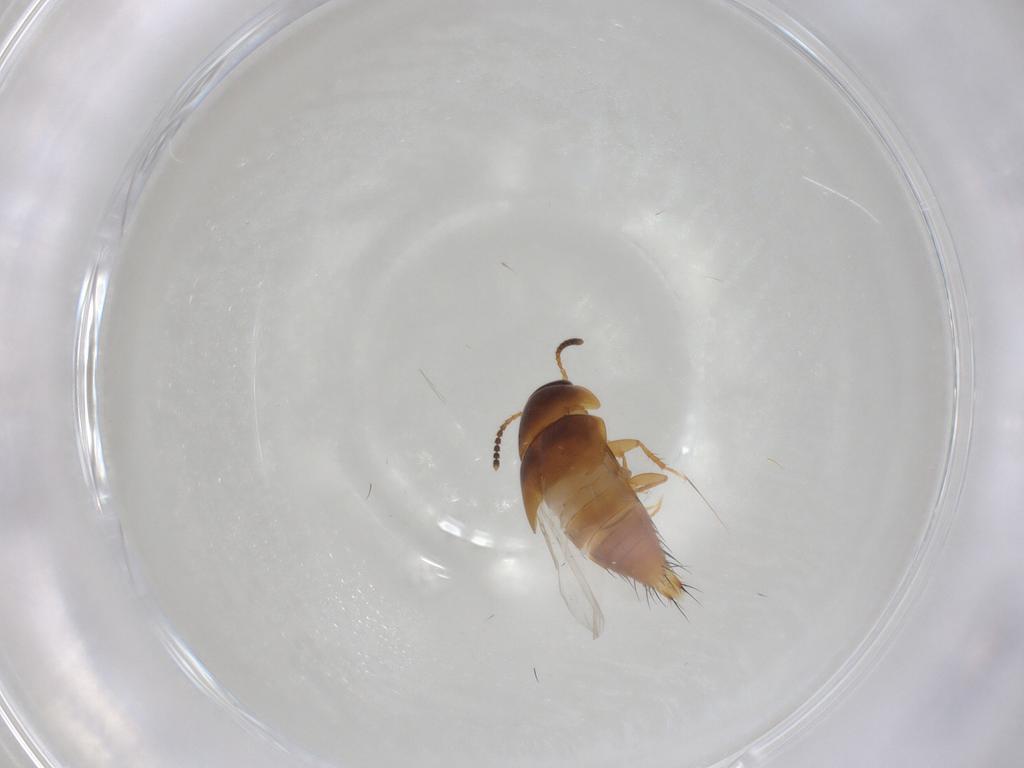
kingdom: Animalia
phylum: Arthropoda
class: Insecta
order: Coleoptera
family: Staphylinidae
